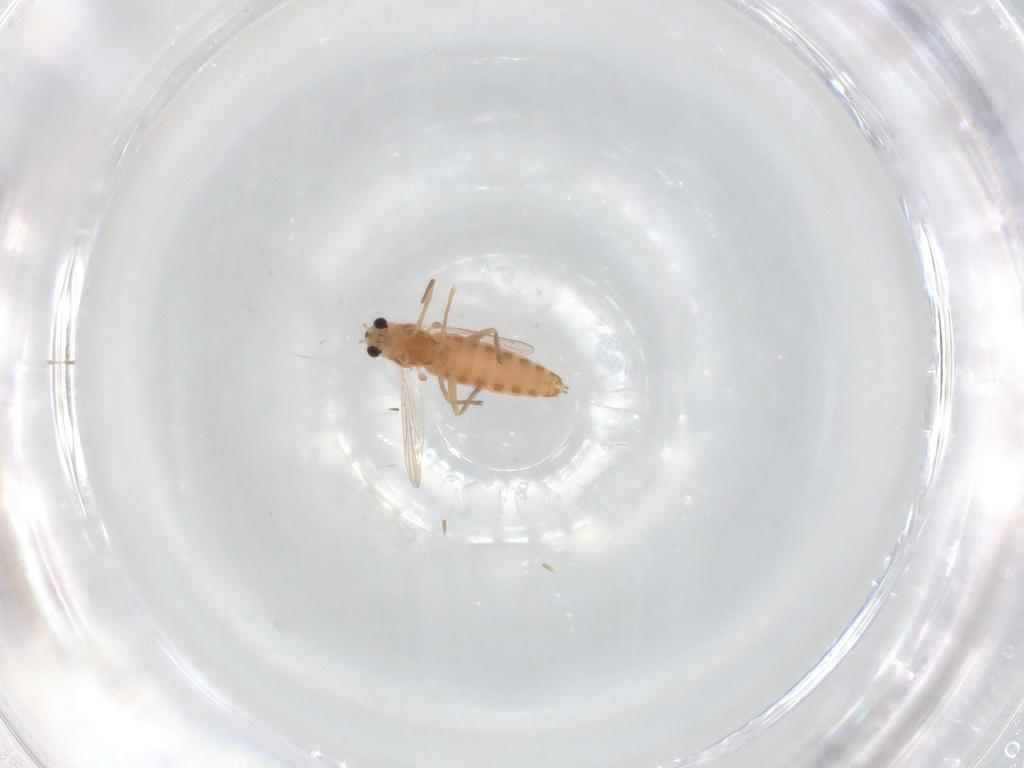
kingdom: Animalia
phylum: Arthropoda
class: Insecta
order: Diptera
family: Chironomidae
